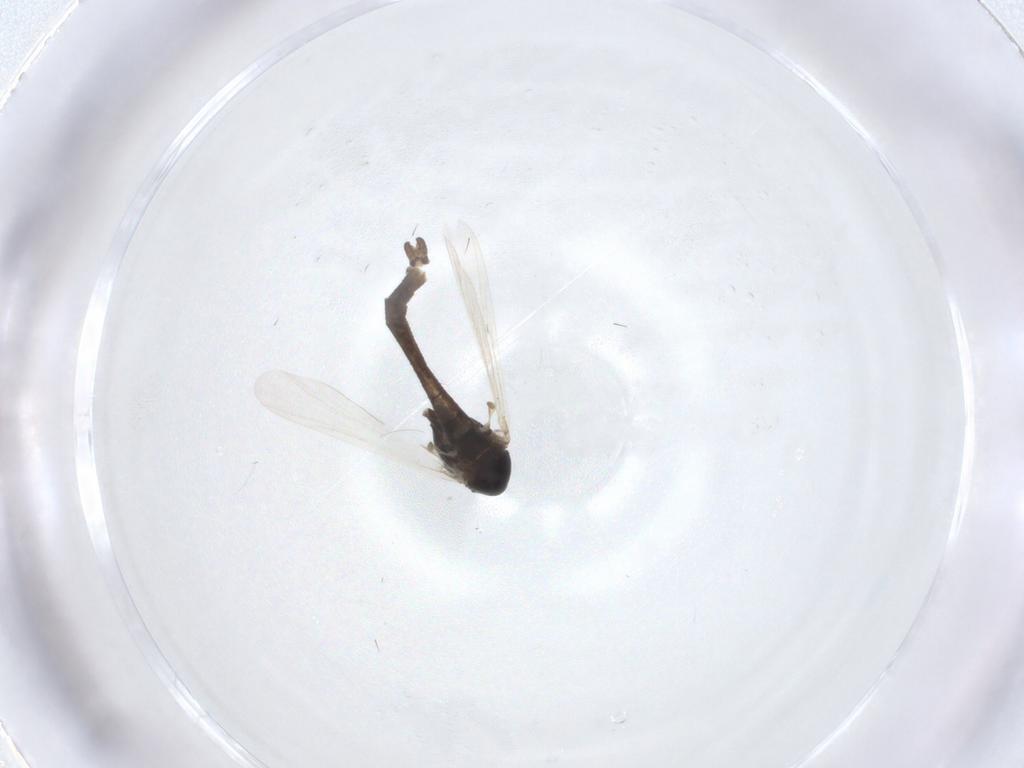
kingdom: Animalia
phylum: Arthropoda
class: Insecta
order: Diptera
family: Chironomidae
